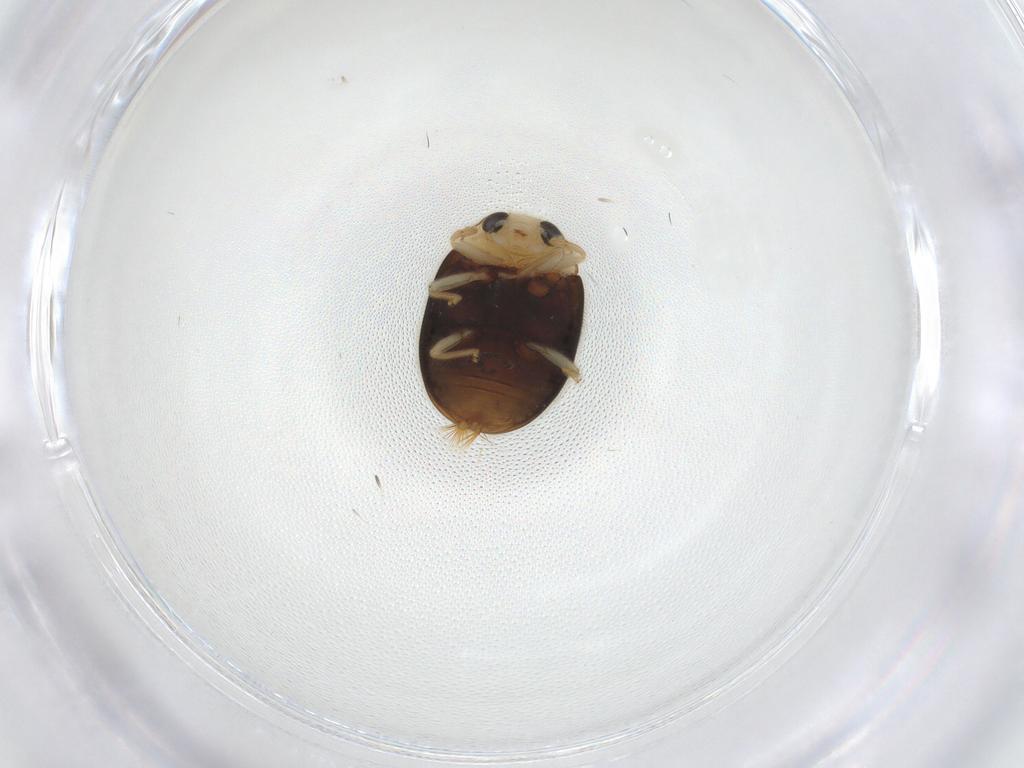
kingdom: Animalia
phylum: Arthropoda
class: Insecta
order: Coleoptera
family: Coccinellidae
